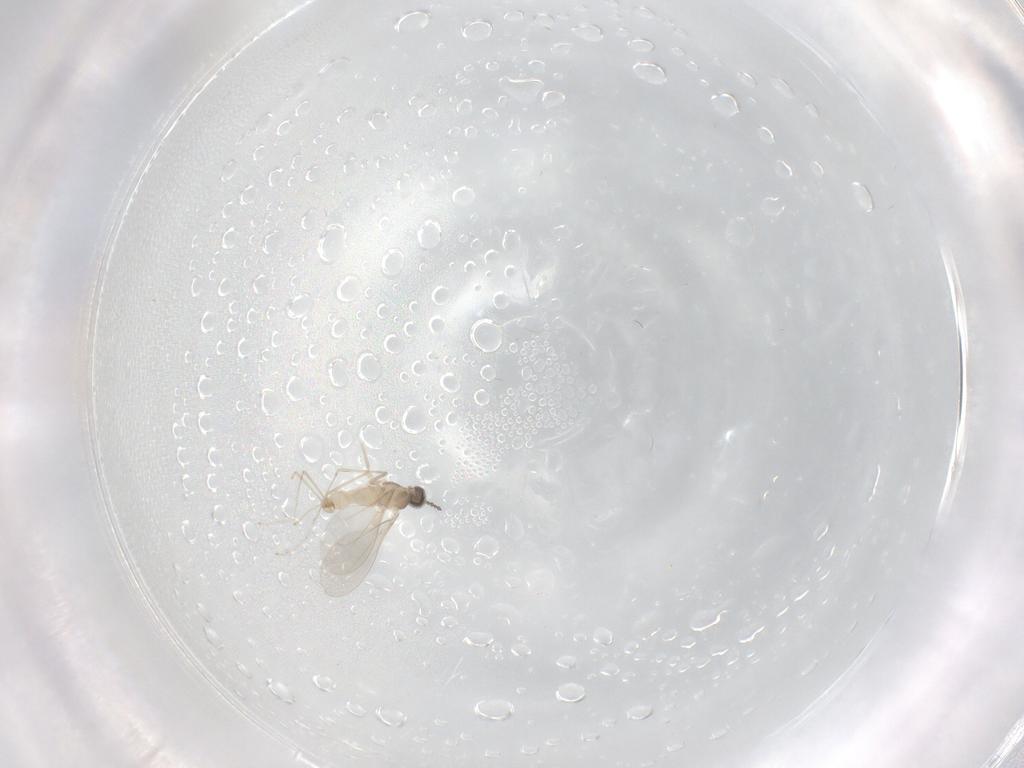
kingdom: Animalia
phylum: Arthropoda
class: Insecta
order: Diptera
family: Cecidomyiidae
